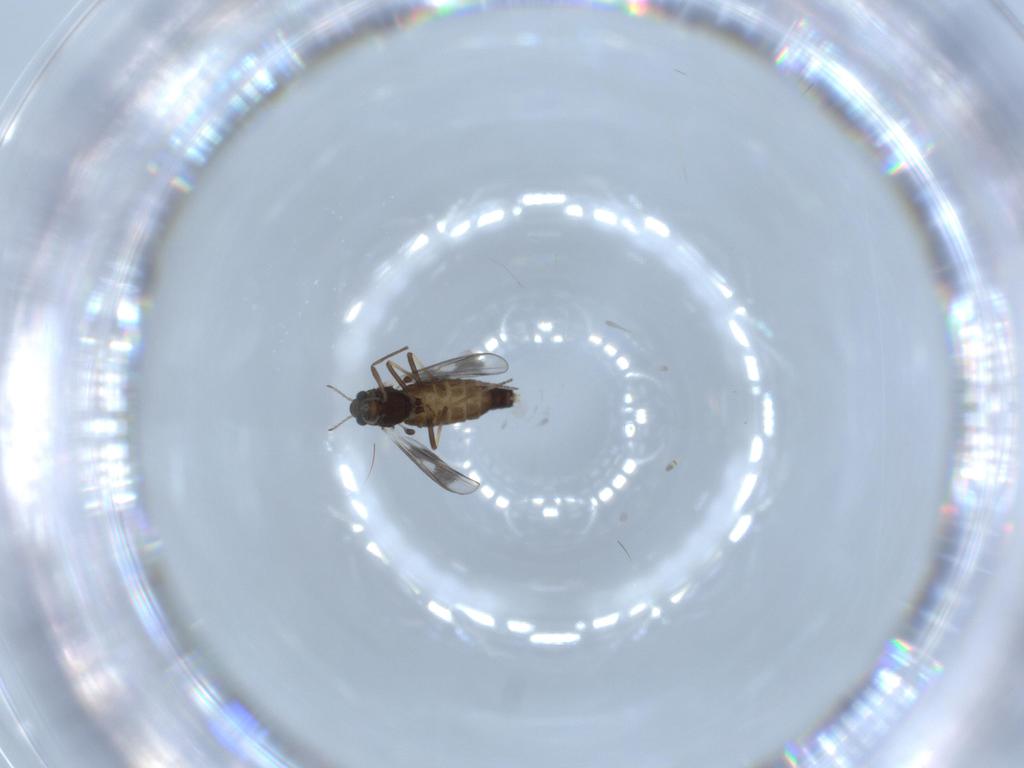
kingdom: Animalia
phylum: Arthropoda
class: Insecta
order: Diptera
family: Chironomidae
